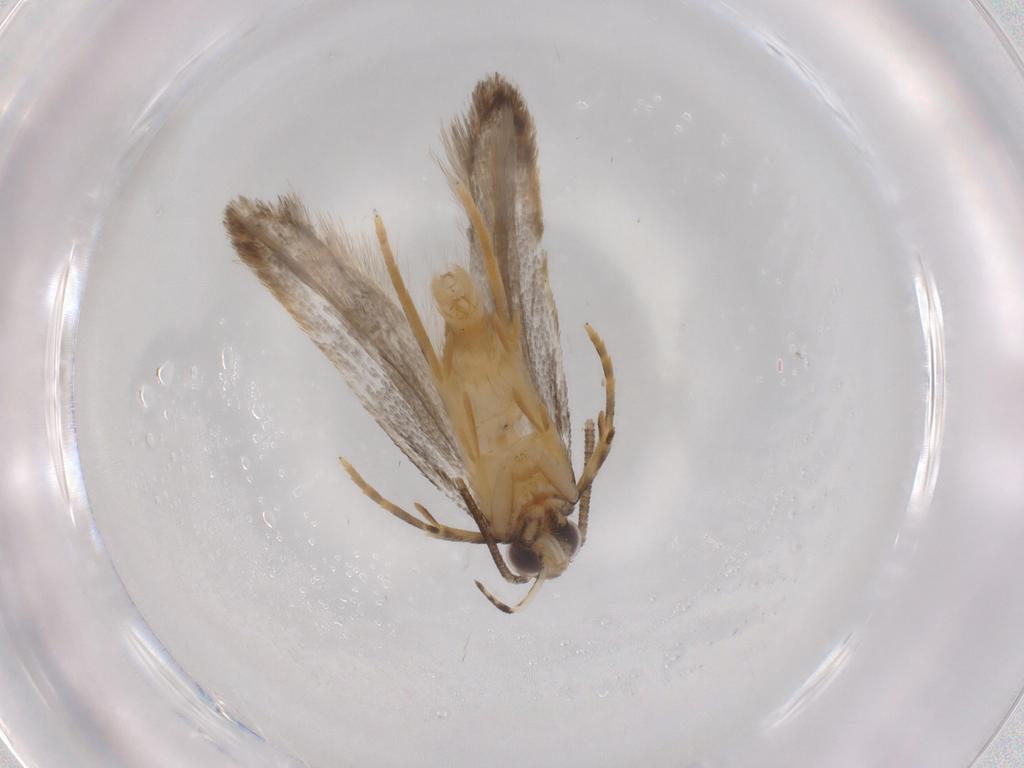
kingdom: Animalia
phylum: Arthropoda
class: Insecta
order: Lepidoptera
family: Autostichidae
